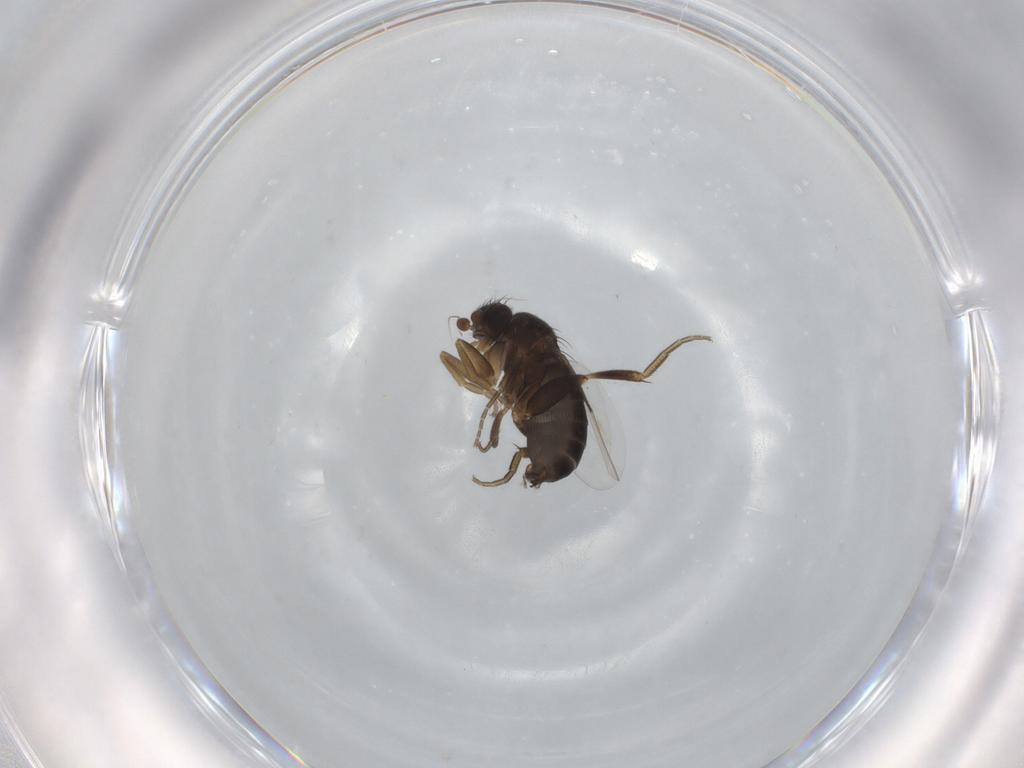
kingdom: Animalia
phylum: Arthropoda
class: Insecta
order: Diptera
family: Phoridae
